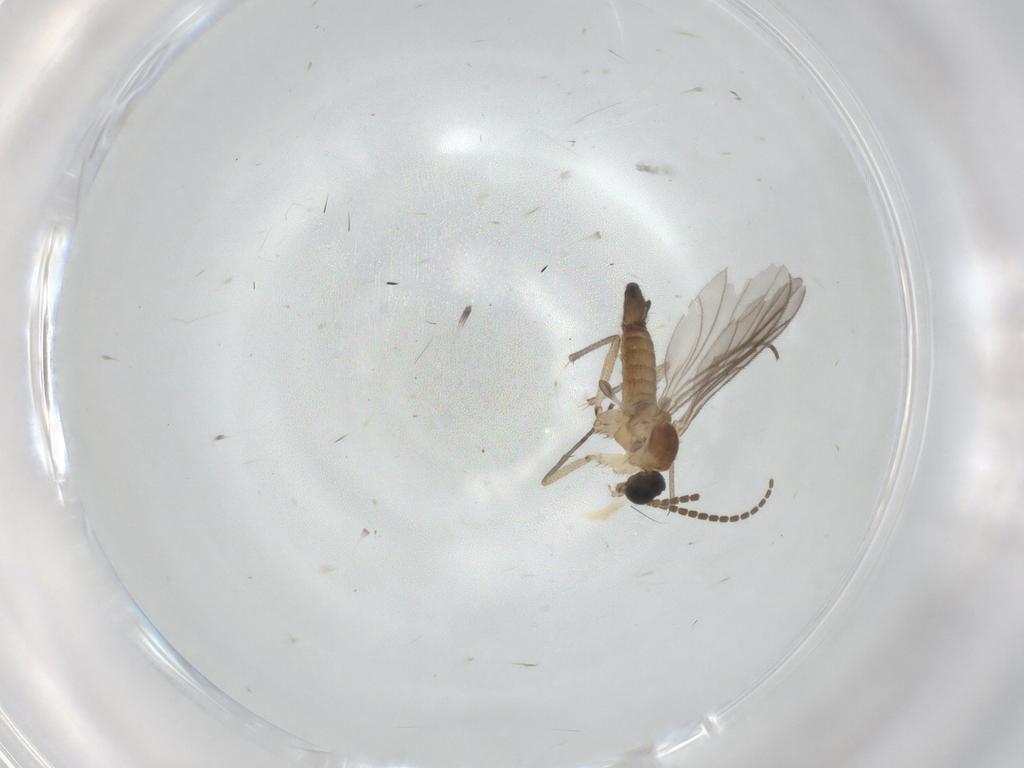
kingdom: Animalia
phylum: Arthropoda
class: Insecta
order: Diptera
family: Sciaridae
